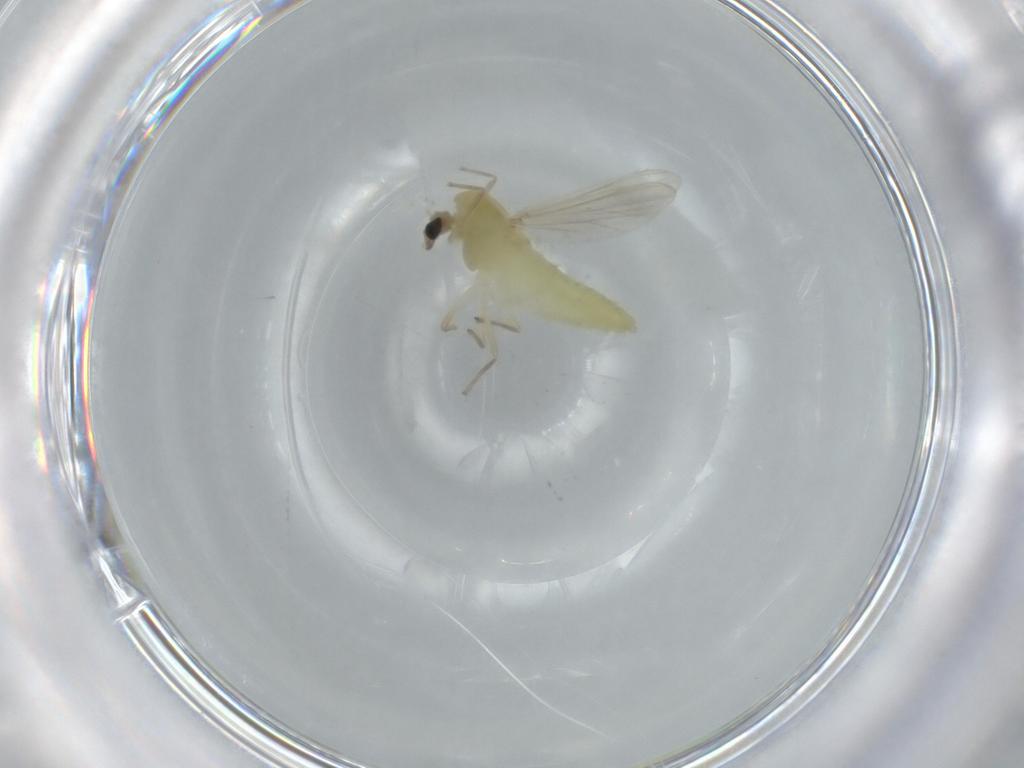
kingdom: Animalia
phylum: Arthropoda
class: Insecta
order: Diptera
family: Chironomidae
